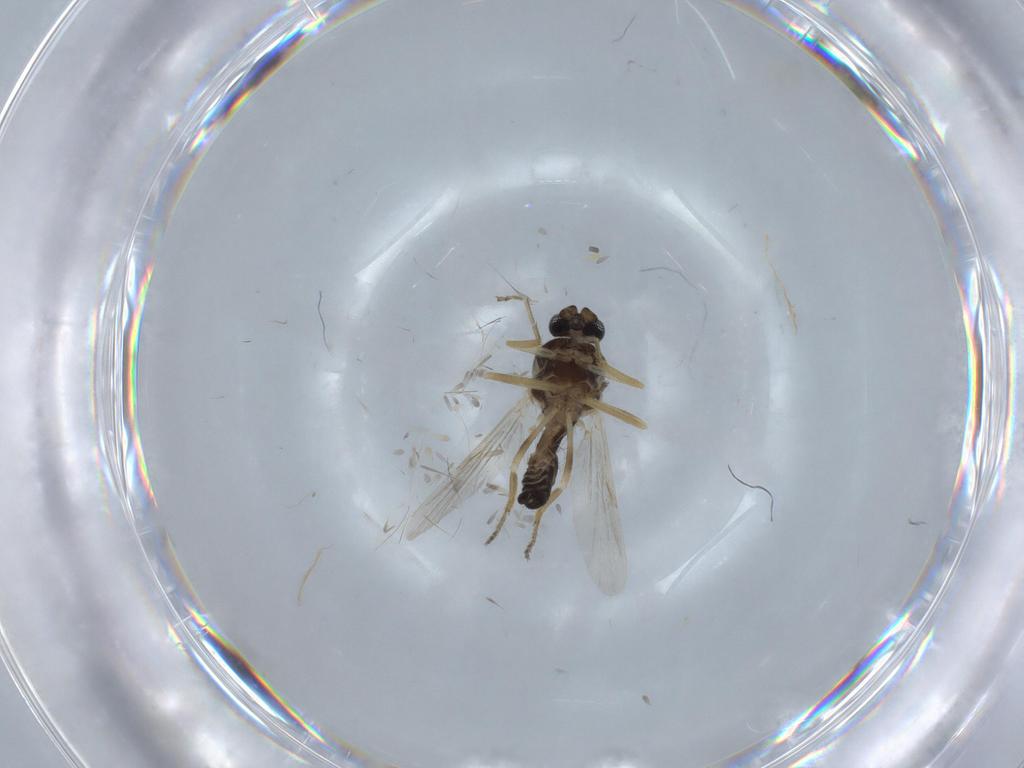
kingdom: Animalia
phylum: Arthropoda
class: Insecta
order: Diptera
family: Ceratopogonidae
